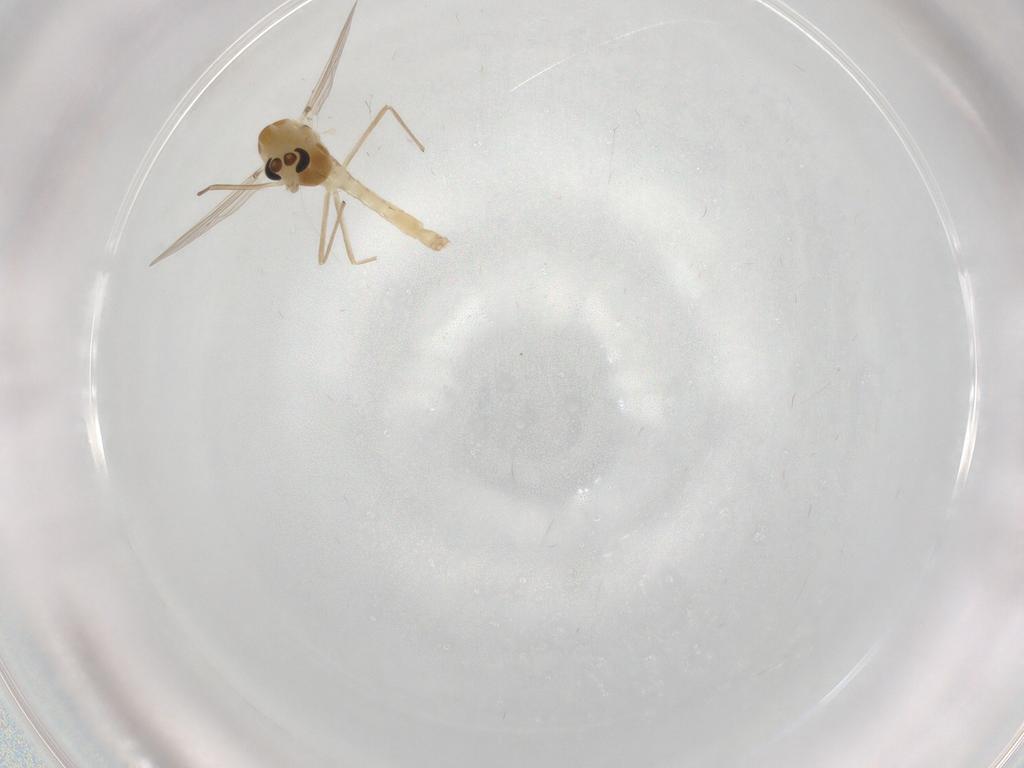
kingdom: Animalia
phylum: Arthropoda
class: Insecta
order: Diptera
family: Chironomidae
